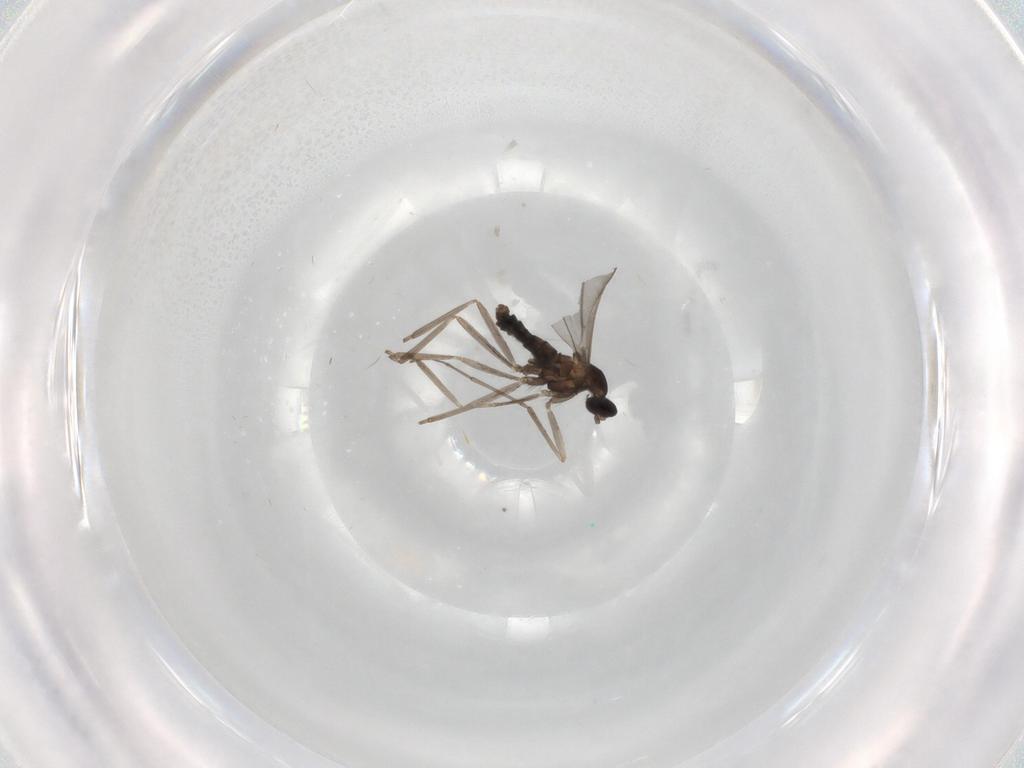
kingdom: Animalia
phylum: Arthropoda
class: Insecta
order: Diptera
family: Cecidomyiidae
